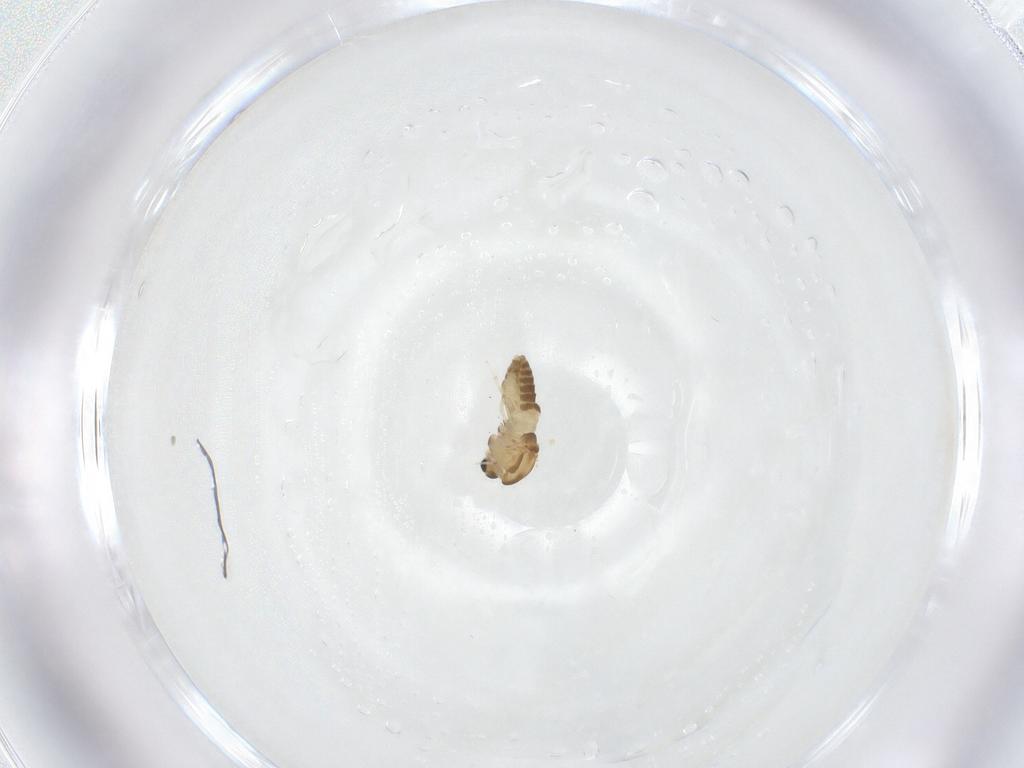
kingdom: Animalia
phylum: Arthropoda
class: Insecta
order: Diptera
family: Chironomidae
